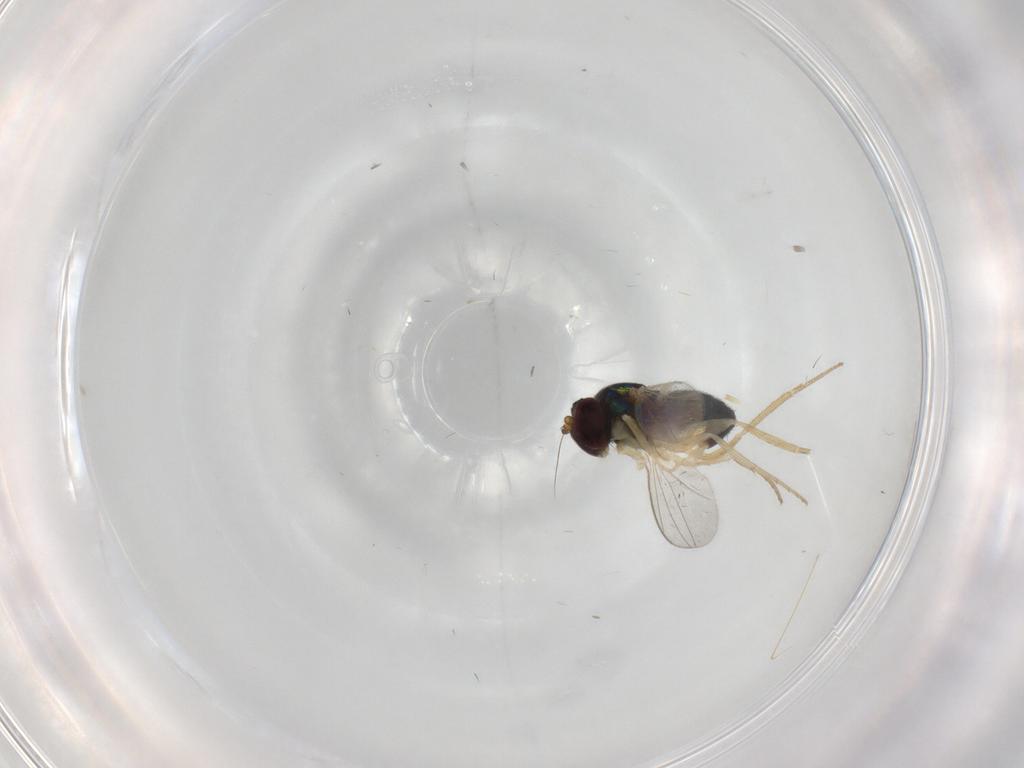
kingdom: Animalia
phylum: Arthropoda
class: Insecta
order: Diptera
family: Dolichopodidae
